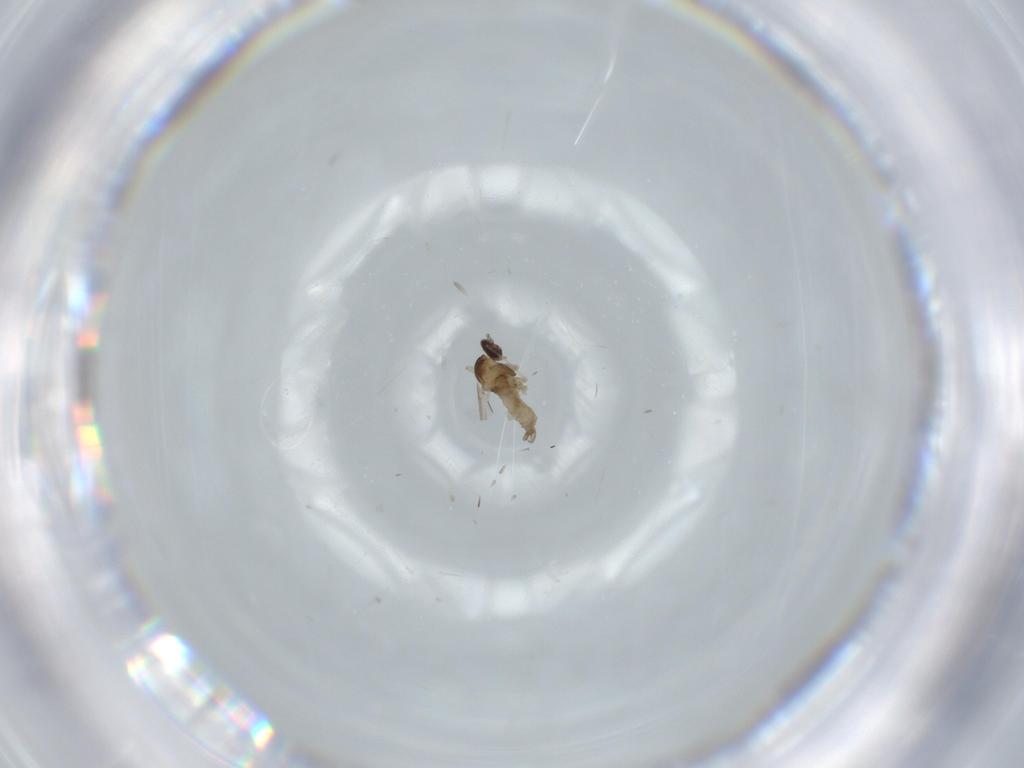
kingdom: Animalia
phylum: Arthropoda
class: Insecta
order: Diptera
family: Cecidomyiidae
